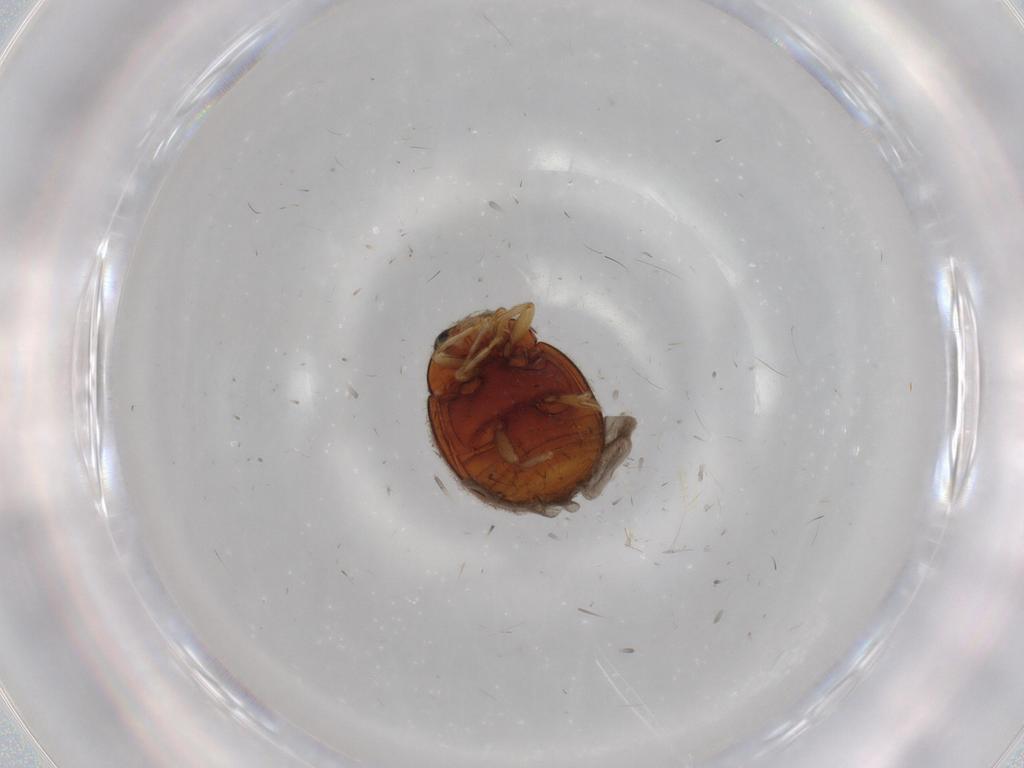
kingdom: Animalia
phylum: Arthropoda
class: Insecta
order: Coleoptera
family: Coccinellidae
